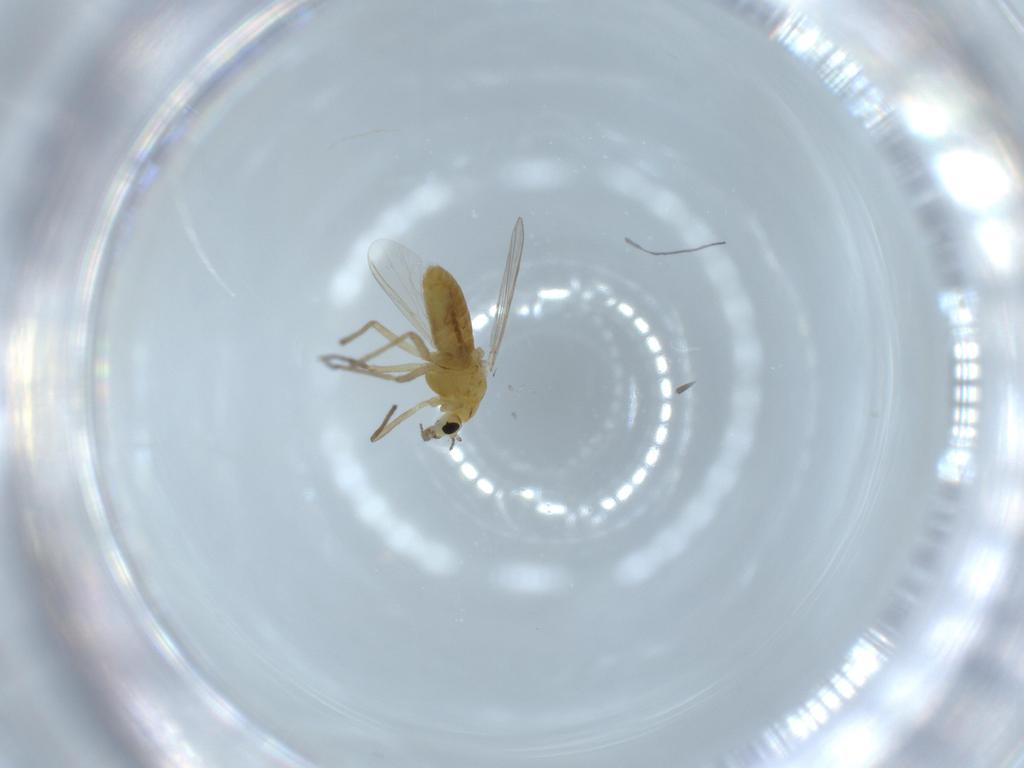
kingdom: Animalia
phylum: Arthropoda
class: Insecta
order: Diptera
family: Chironomidae
